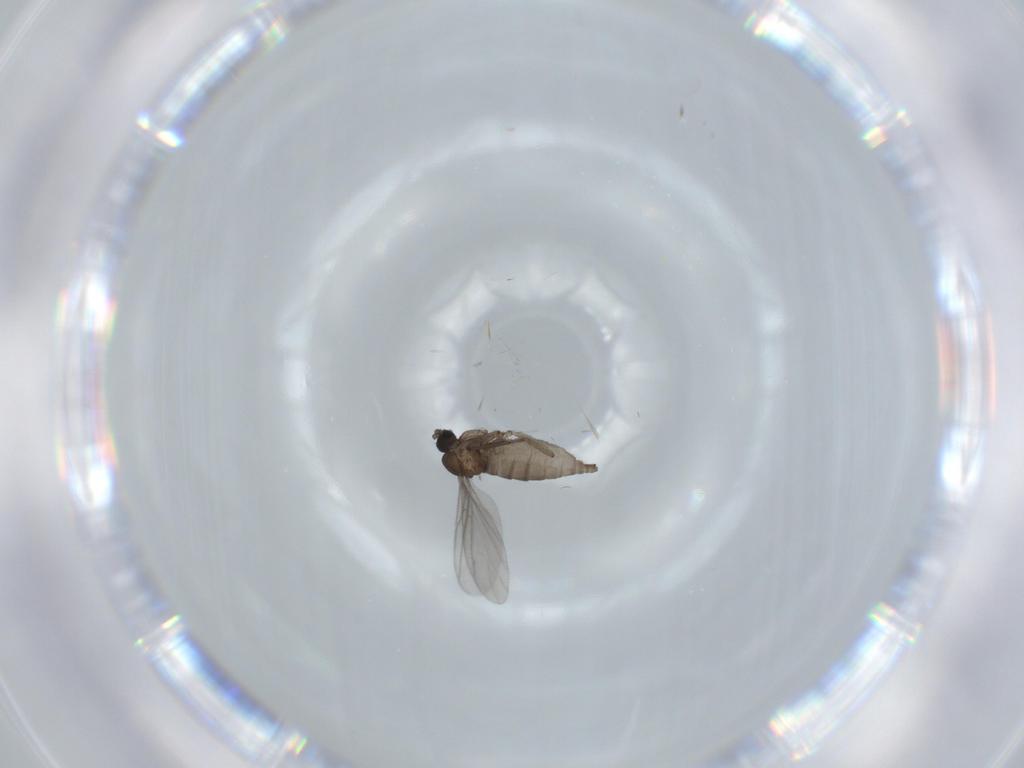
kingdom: Animalia
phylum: Arthropoda
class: Insecta
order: Diptera
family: Sciaridae
